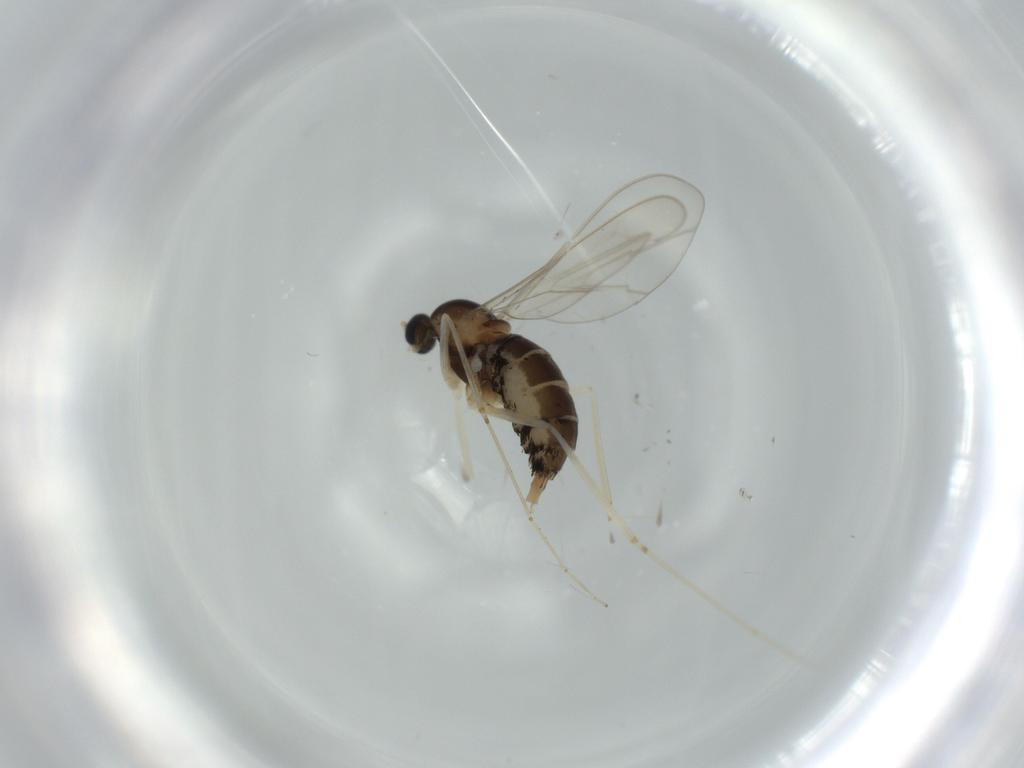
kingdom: Animalia
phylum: Arthropoda
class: Insecta
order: Diptera
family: Cecidomyiidae
